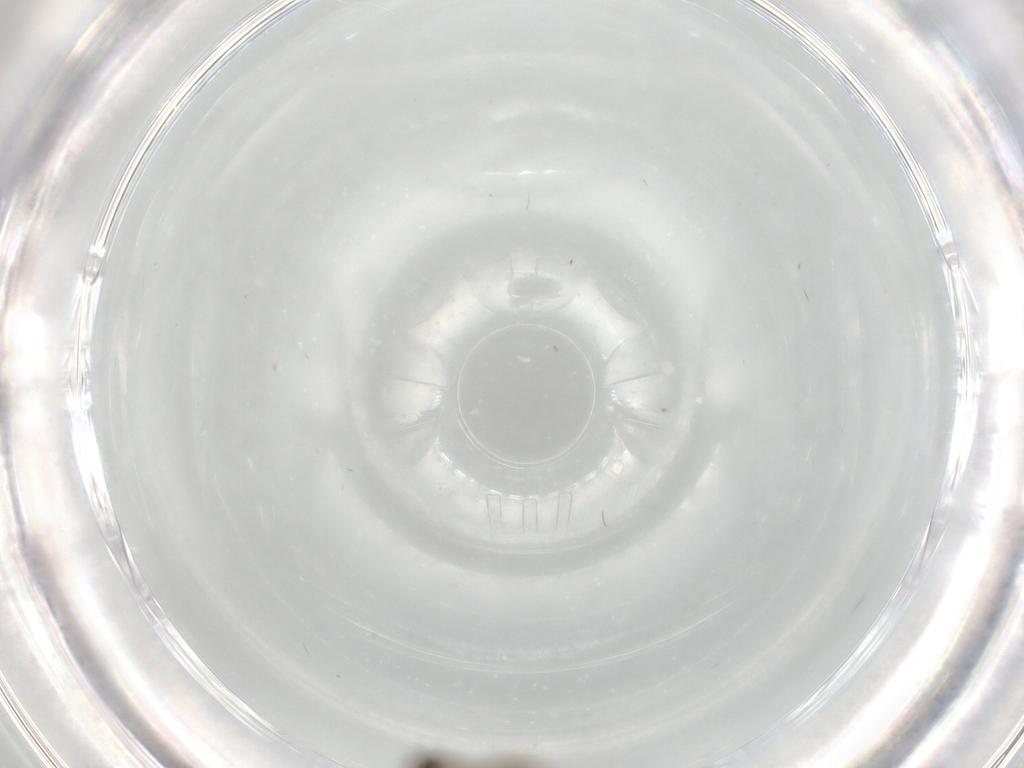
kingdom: Animalia
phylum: Arthropoda
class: Insecta
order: Diptera
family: Phoridae
